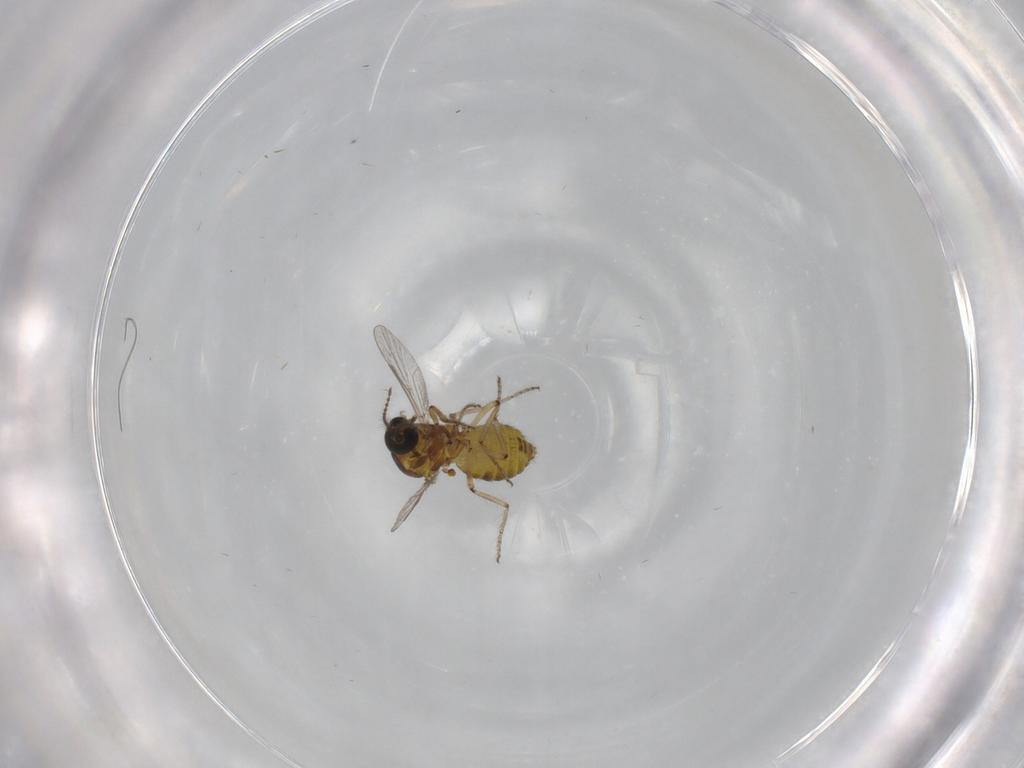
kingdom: Animalia
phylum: Arthropoda
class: Insecta
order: Diptera
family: Ceratopogonidae
